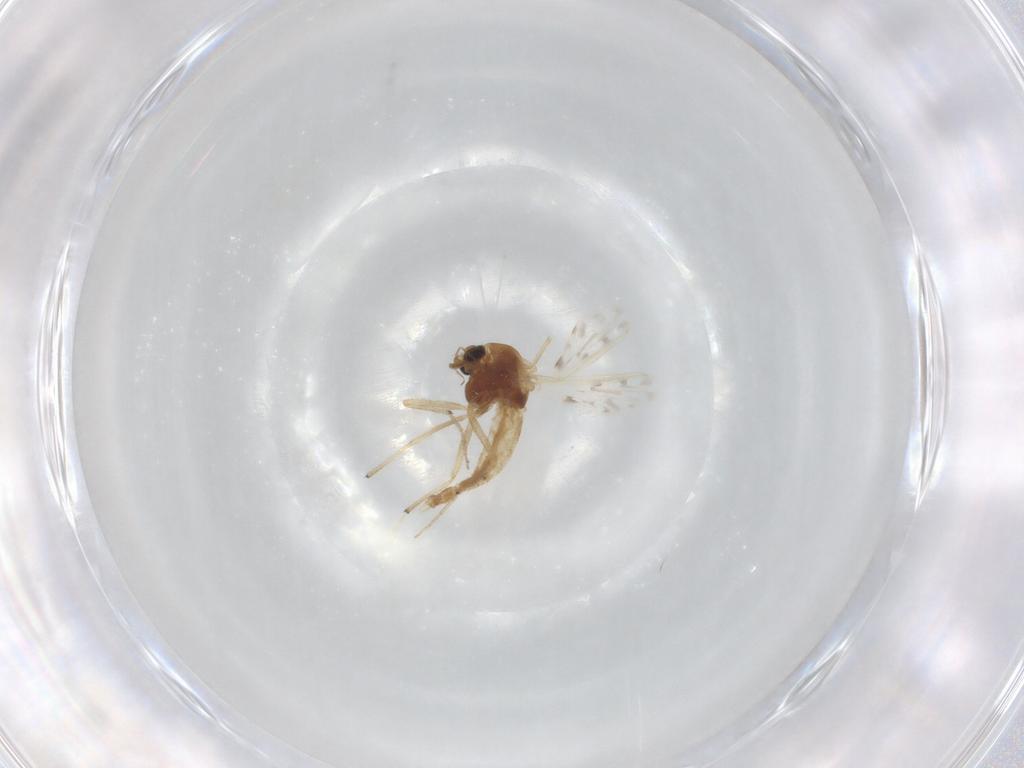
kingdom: Animalia
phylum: Arthropoda
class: Insecta
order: Diptera
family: Chironomidae
